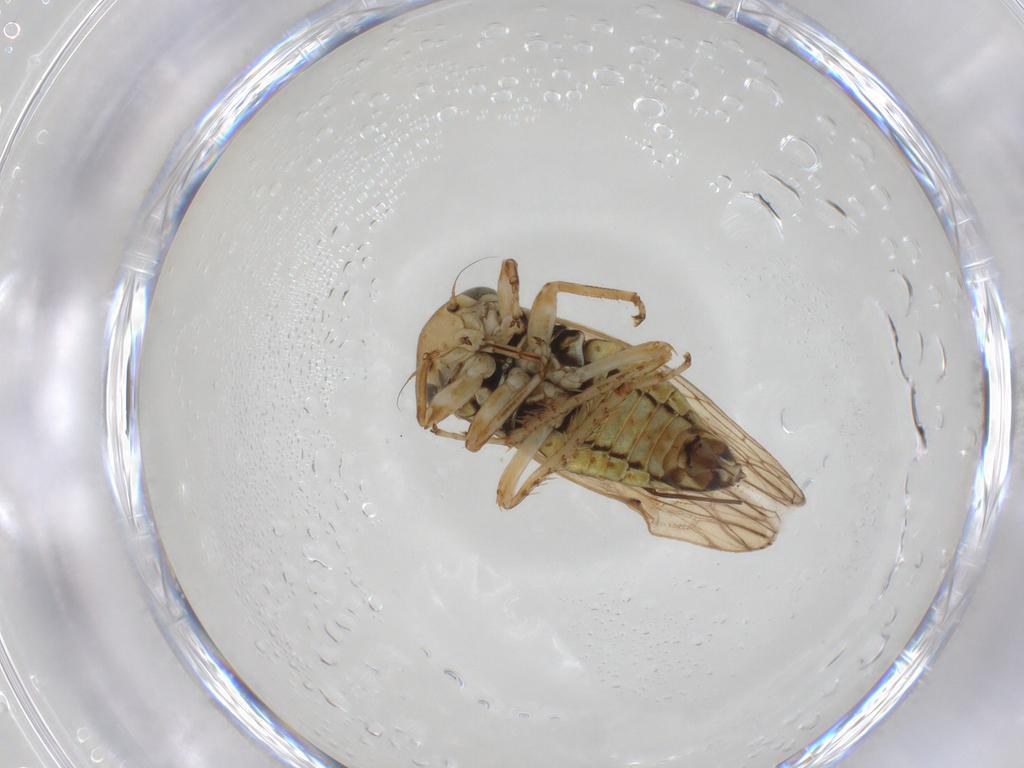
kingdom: Animalia
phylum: Arthropoda
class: Insecta
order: Hemiptera
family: Cicadellidae
